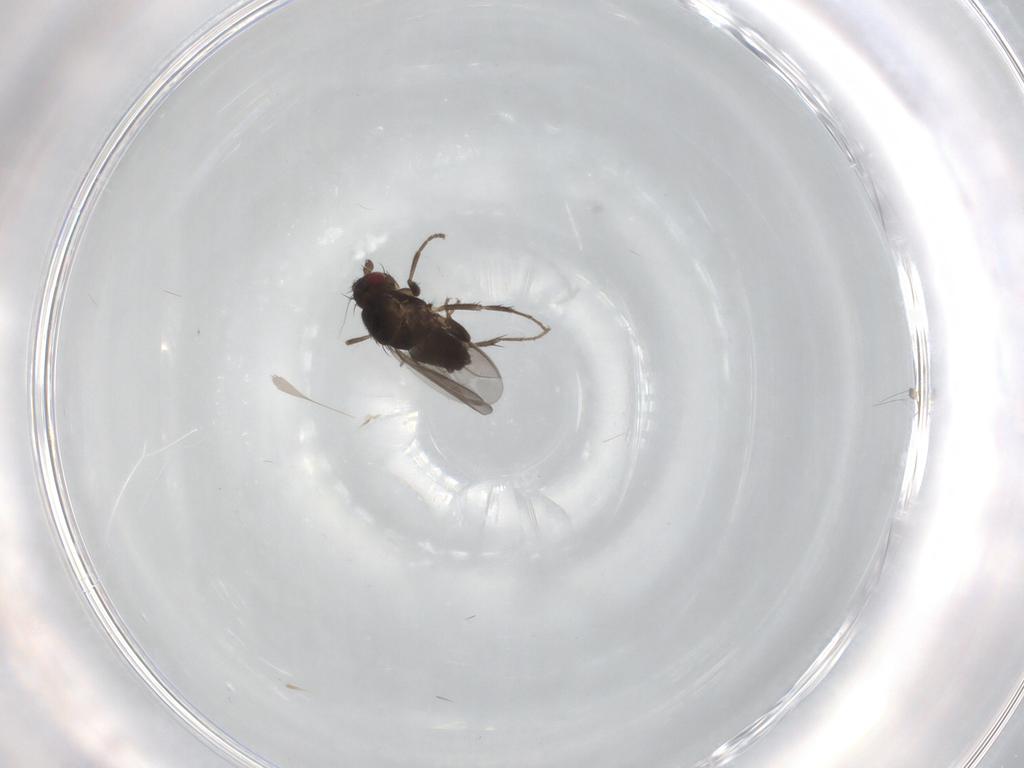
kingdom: Animalia
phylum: Arthropoda
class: Insecta
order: Diptera
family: Sphaeroceridae
